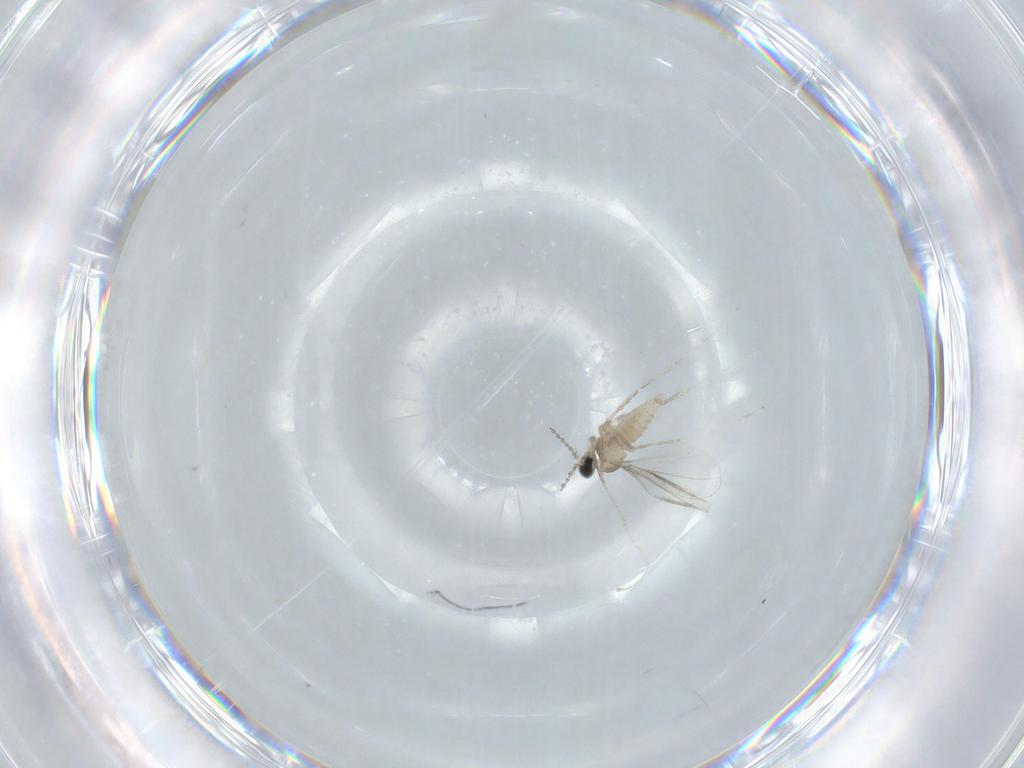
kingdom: Animalia
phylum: Arthropoda
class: Insecta
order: Diptera
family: Cecidomyiidae
